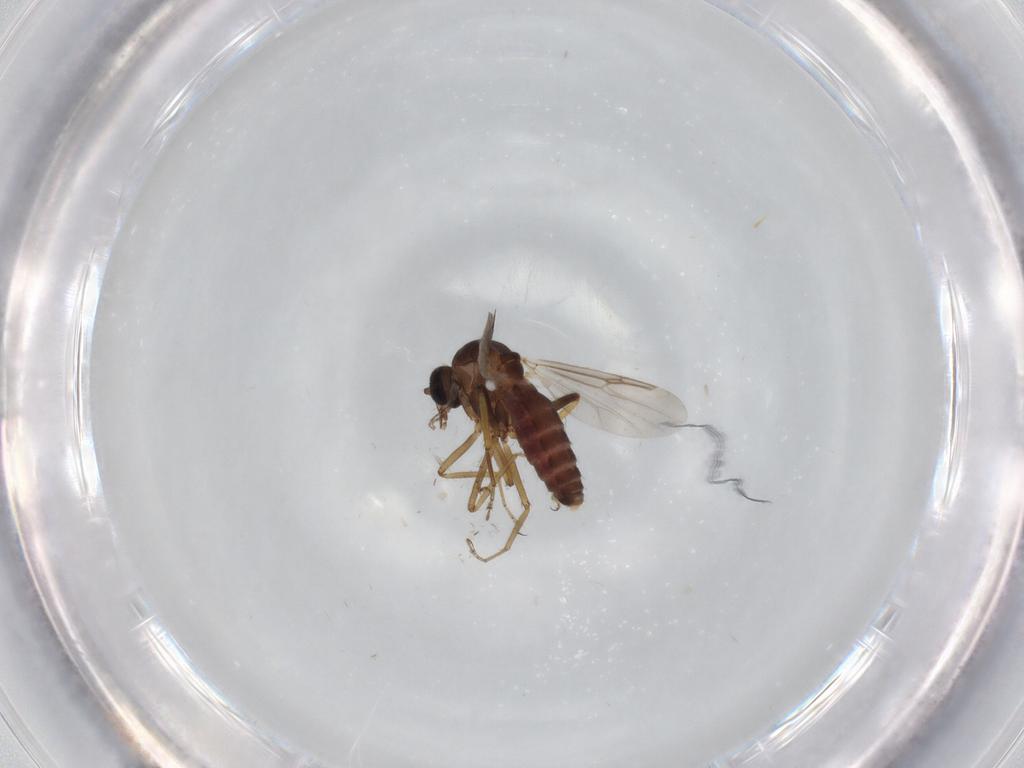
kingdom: Animalia
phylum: Arthropoda
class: Insecta
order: Diptera
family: Ceratopogonidae
